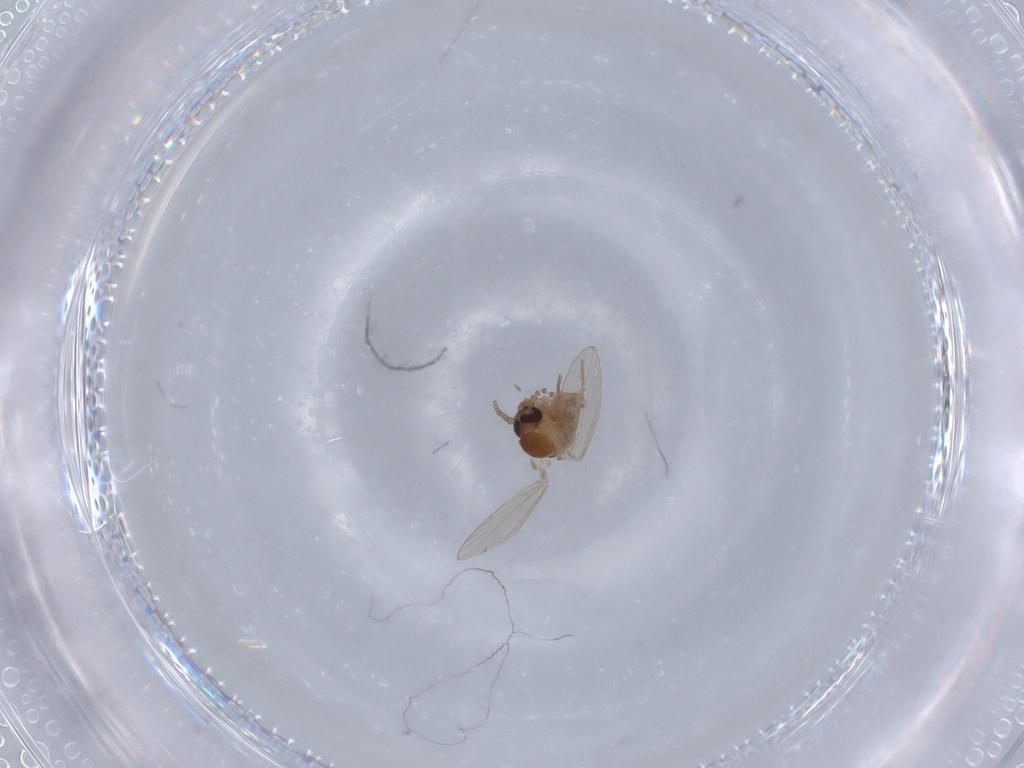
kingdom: Animalia
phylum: Arthropoda
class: Insecta
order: Diptera
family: Psychodidae
